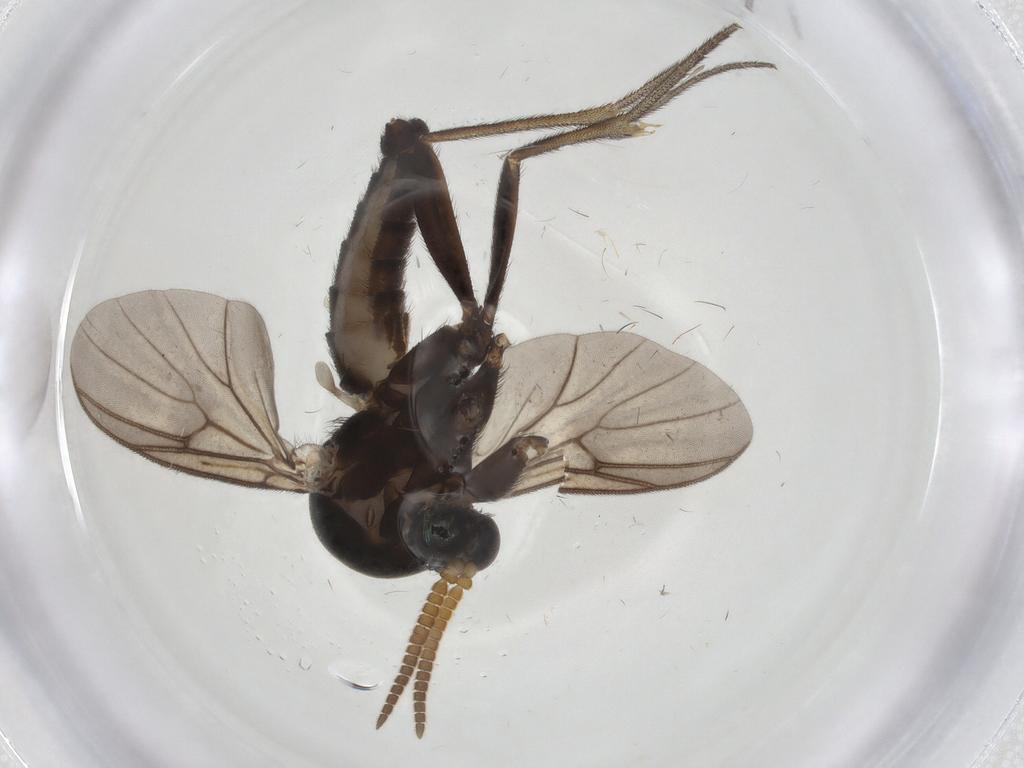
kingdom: Animalia
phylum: Arthropoda
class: Insecta
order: Diptera
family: Mycetophilidae
